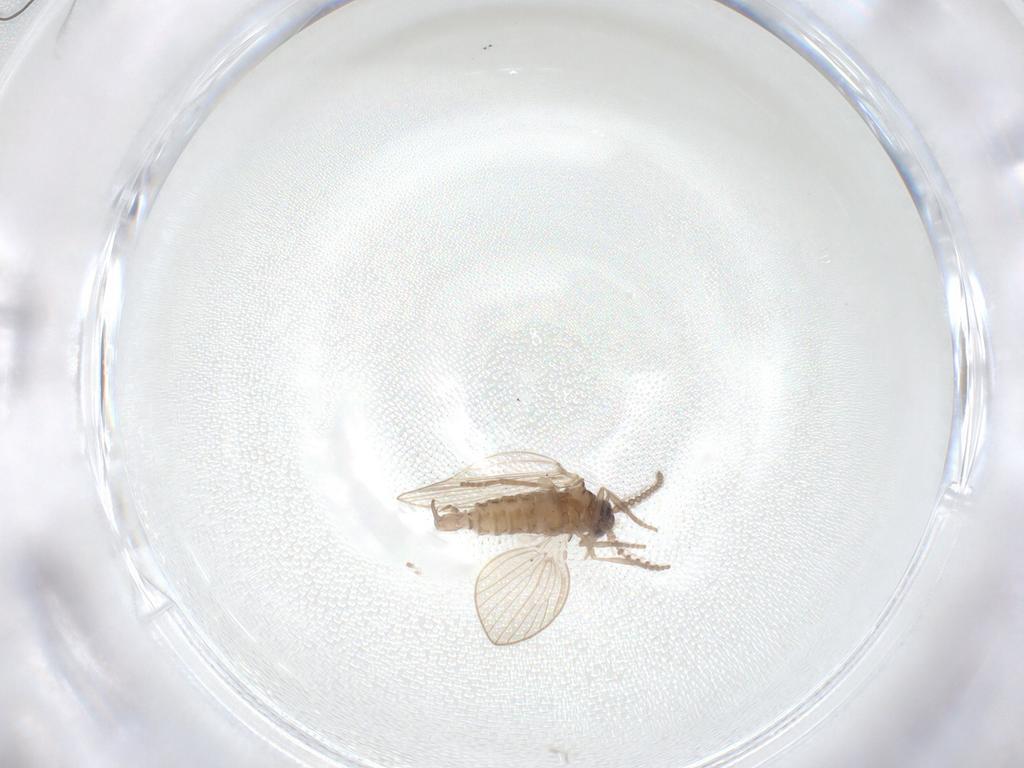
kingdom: Animalia
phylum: Arthropoda
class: Insecta
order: Diptera
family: Psychodidae
